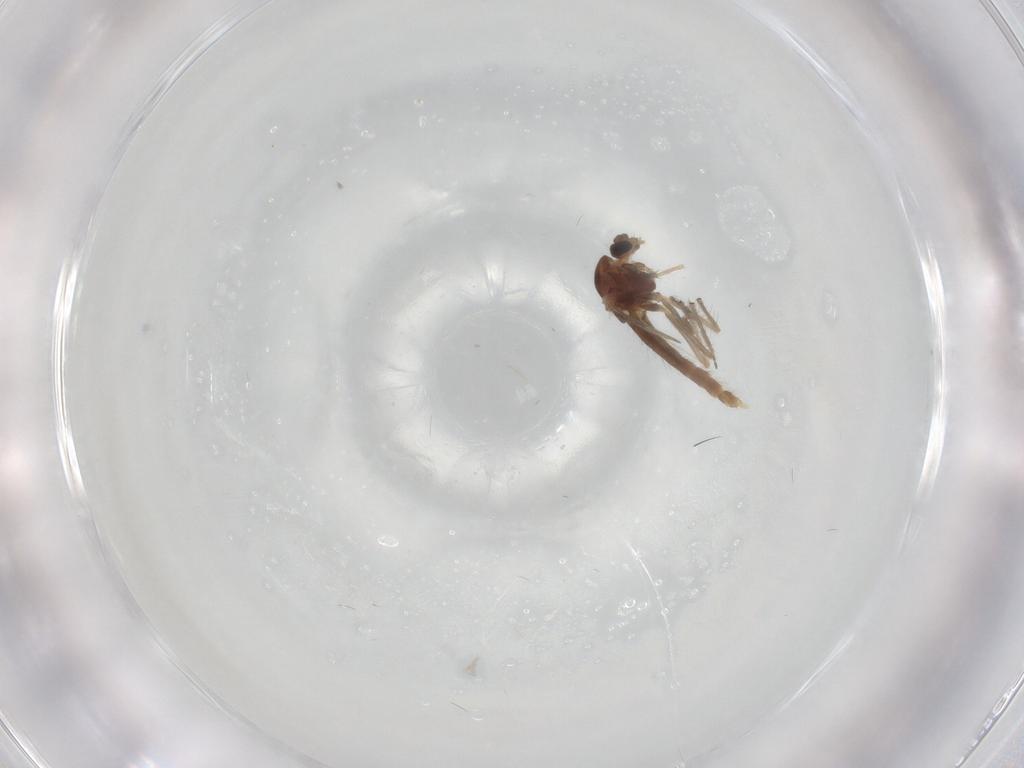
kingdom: Animalia
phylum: Arthropoda
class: Insecta
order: Diptera
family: Chironomidae
